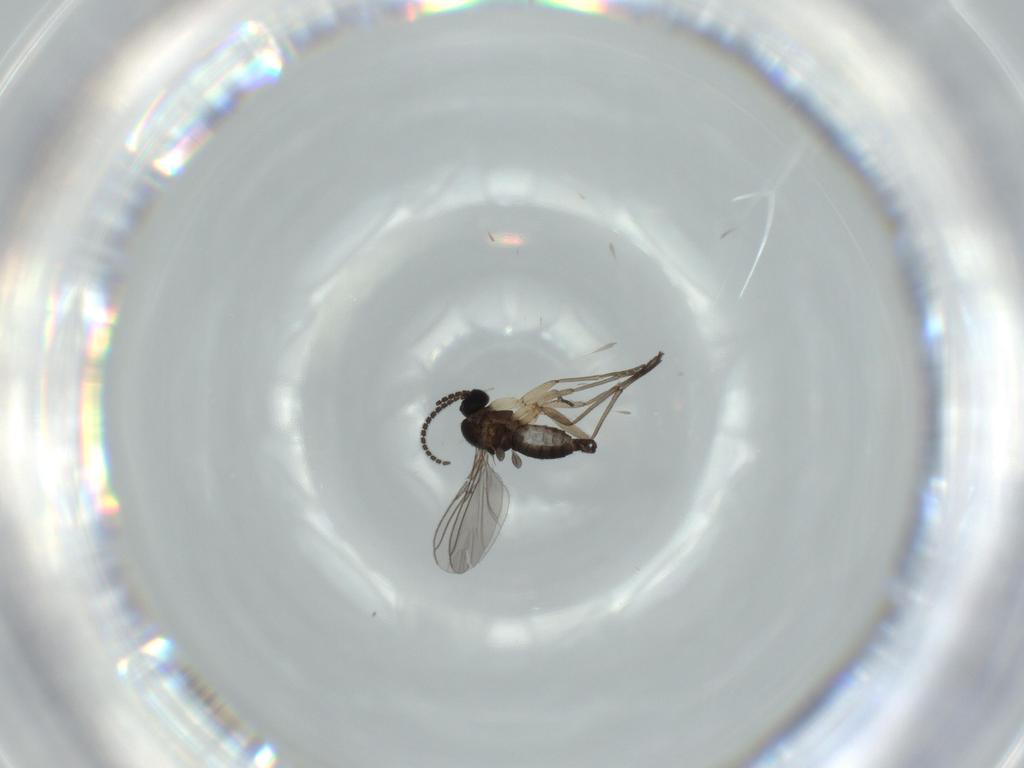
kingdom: Animalia
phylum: Arthropoda
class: Insecta
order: Diptera
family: Sciaridae
